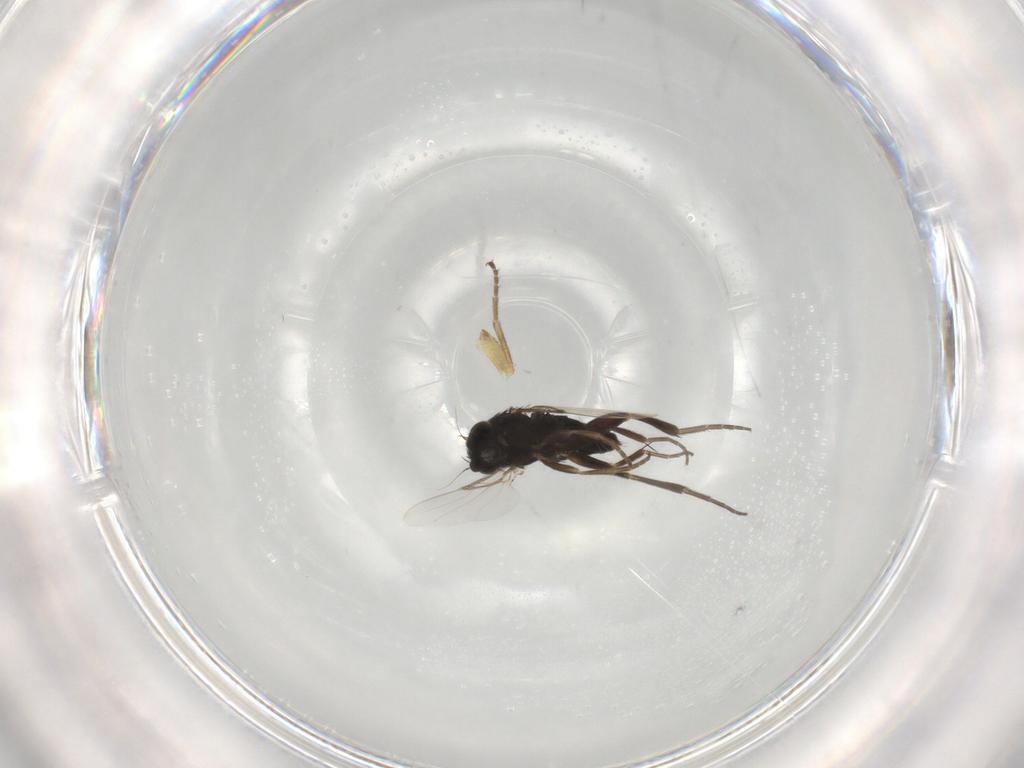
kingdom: Animalia
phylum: Arthropoda
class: Insecta
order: Diptera
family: Phoridae
